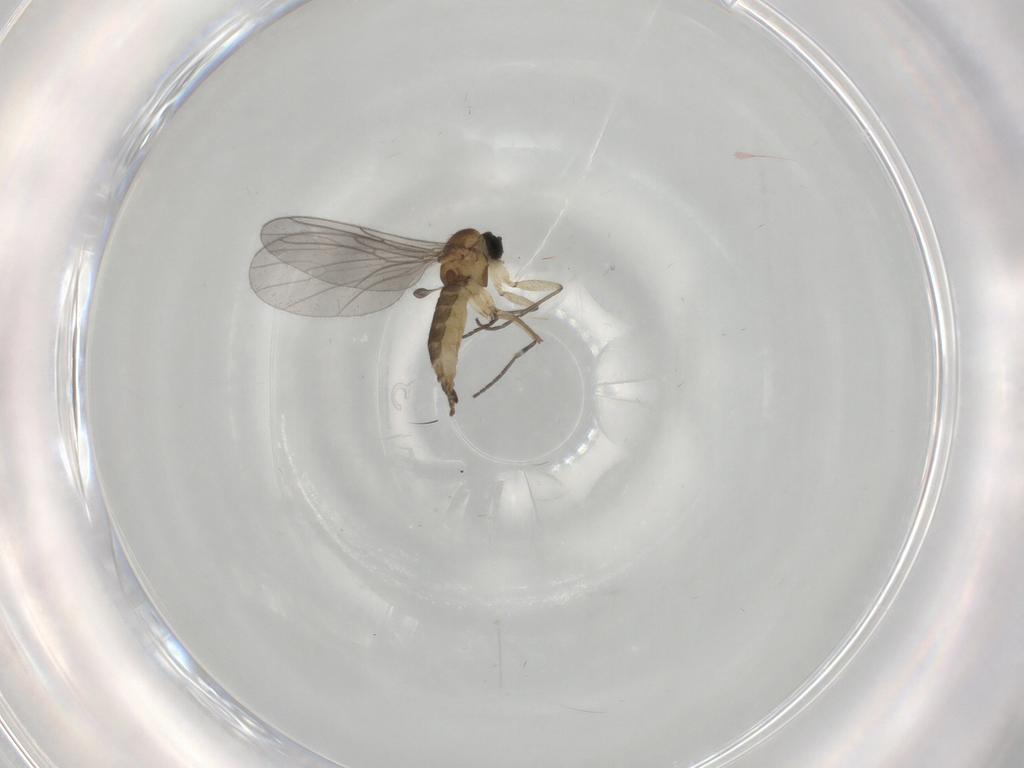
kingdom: Animalia
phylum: Arthropoda
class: Insecta
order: Diptera
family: Sciaridae
